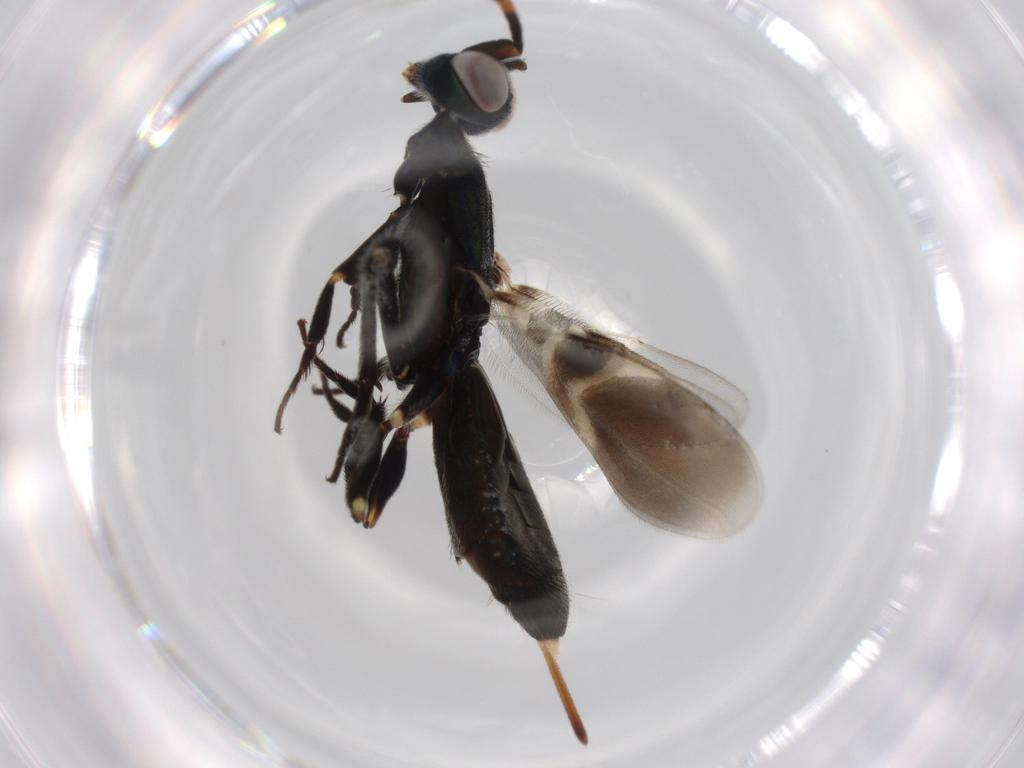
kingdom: Animalia
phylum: Arthropoda
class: Insecta
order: Hymenoptera
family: Eupelmidae
